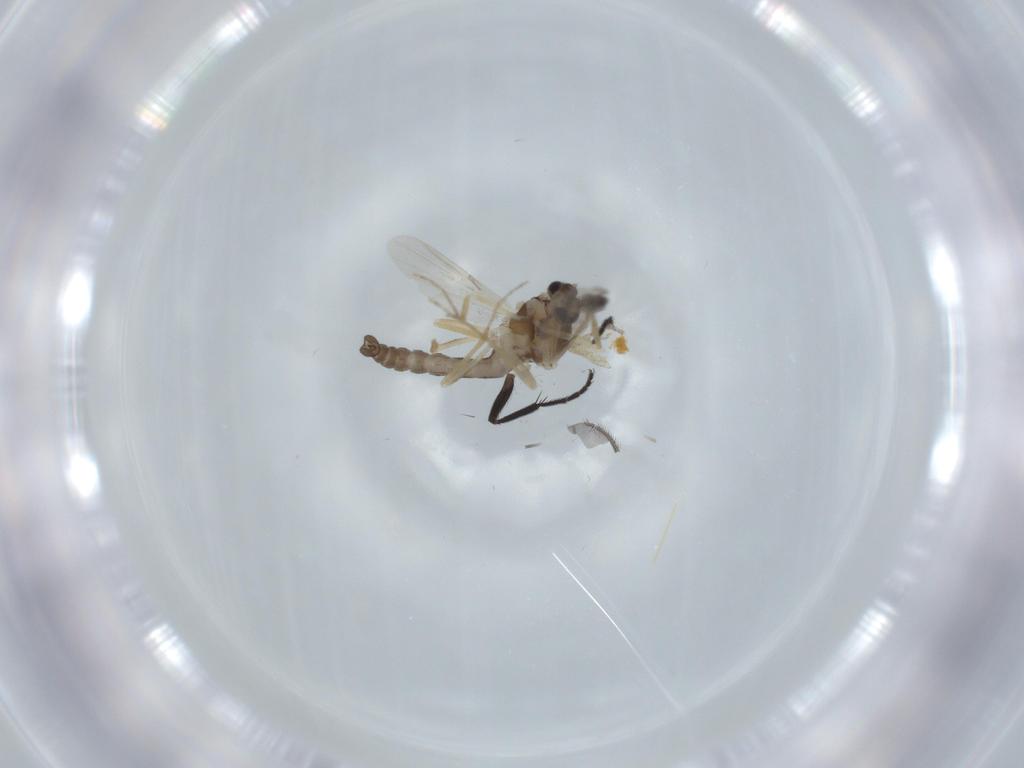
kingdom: Animalia
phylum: Arthropoda
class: Insecta
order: Diptera
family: Ceratopogonidae
